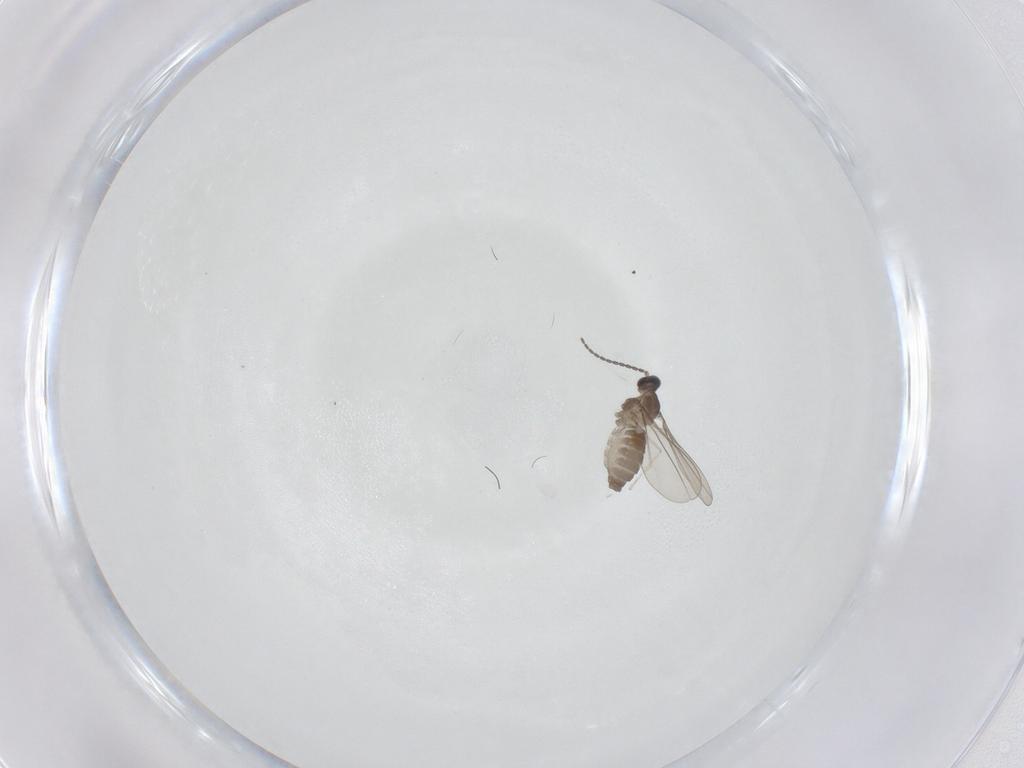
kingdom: Animalia
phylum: Arthropoda
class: Insecta
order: Diptera
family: Cecidomyiidae
